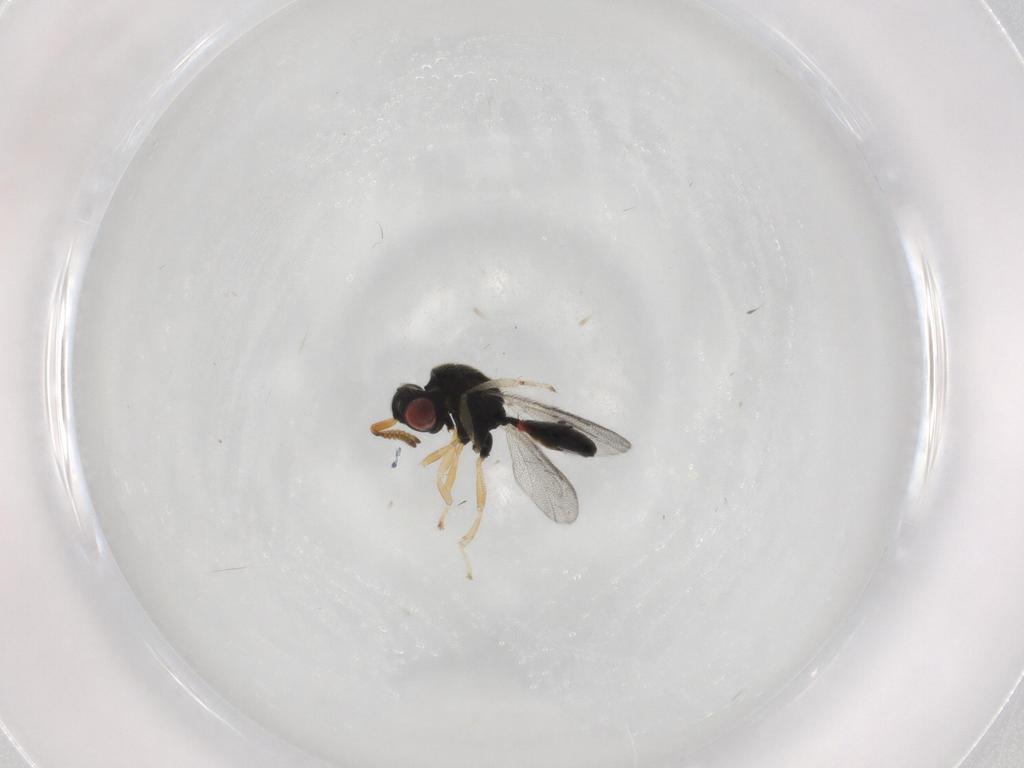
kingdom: Animalia
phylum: Arthropoda
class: Insecta
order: Hymenoptera
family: Eurytomidae
